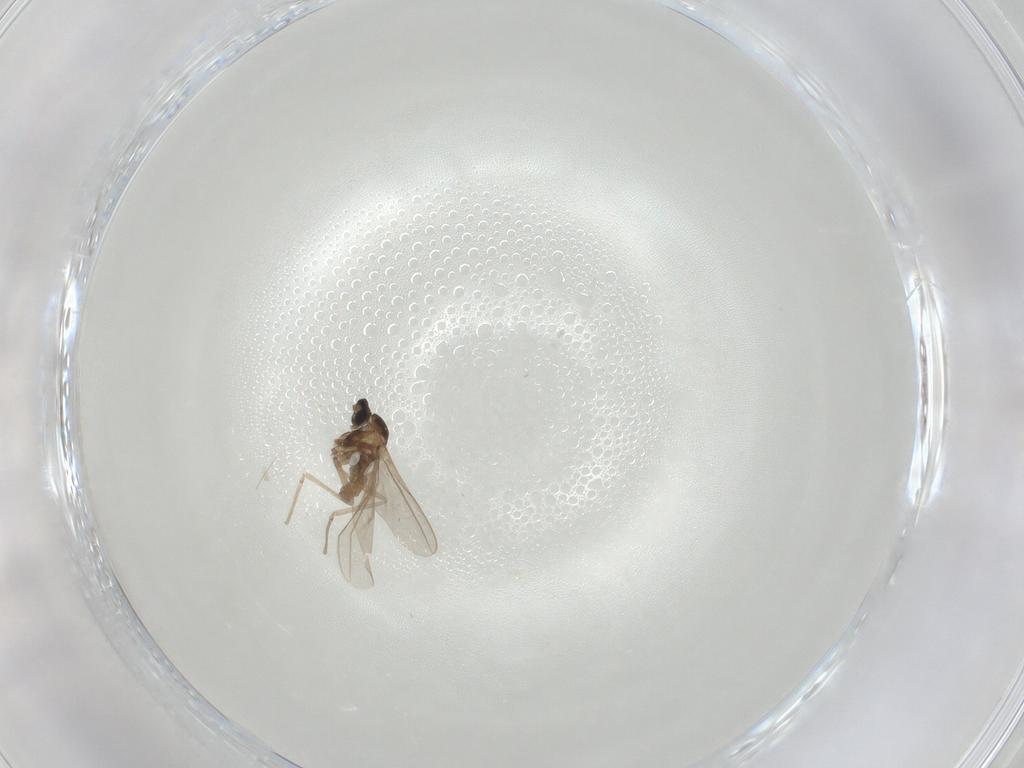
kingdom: Animalia
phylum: Arthropoda
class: Insecta
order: Diptera
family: Cecidomyiidae
